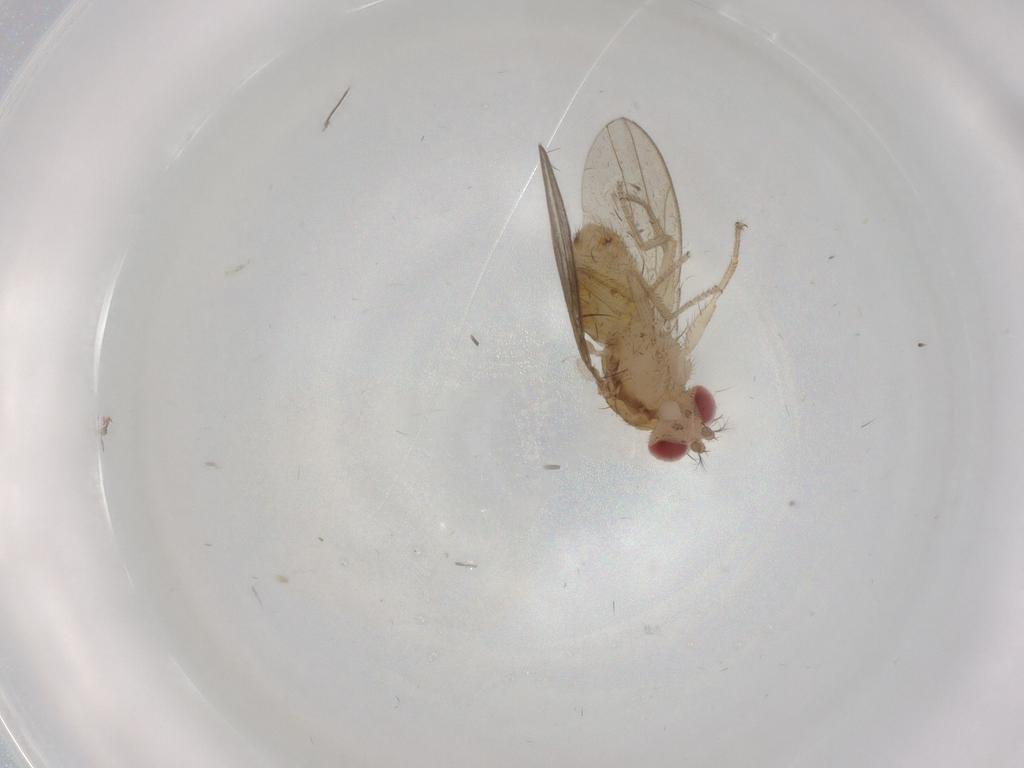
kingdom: Animalia
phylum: Arthropoda
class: Insecta
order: Diptera
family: Drosophilidae
